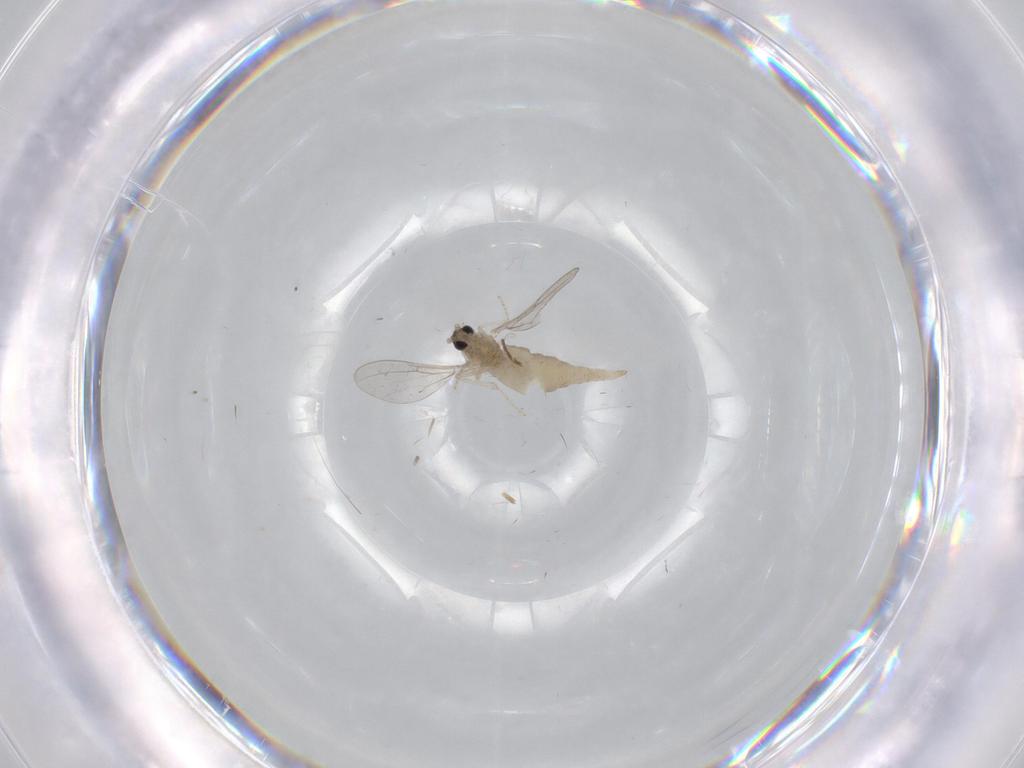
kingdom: Animalia
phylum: Arthropoda
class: Insecta
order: Diptera
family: Cecidomyiidae
